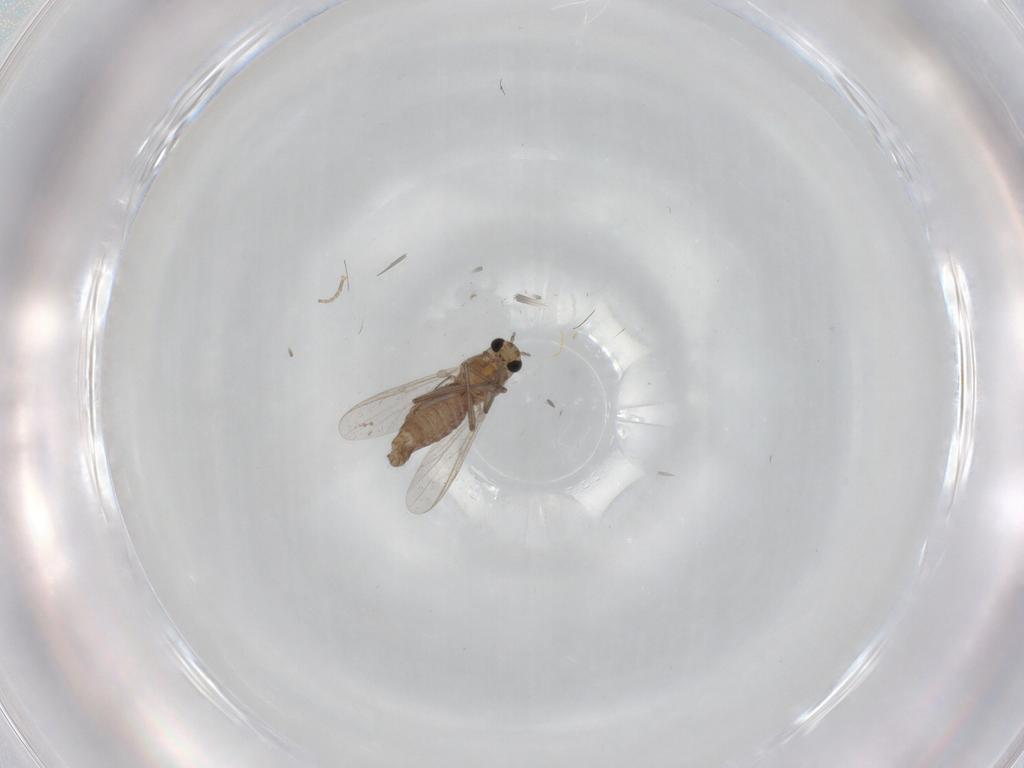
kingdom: Animalia
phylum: Arthropoda
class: Insecta
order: Diptera
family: Chironomidae
